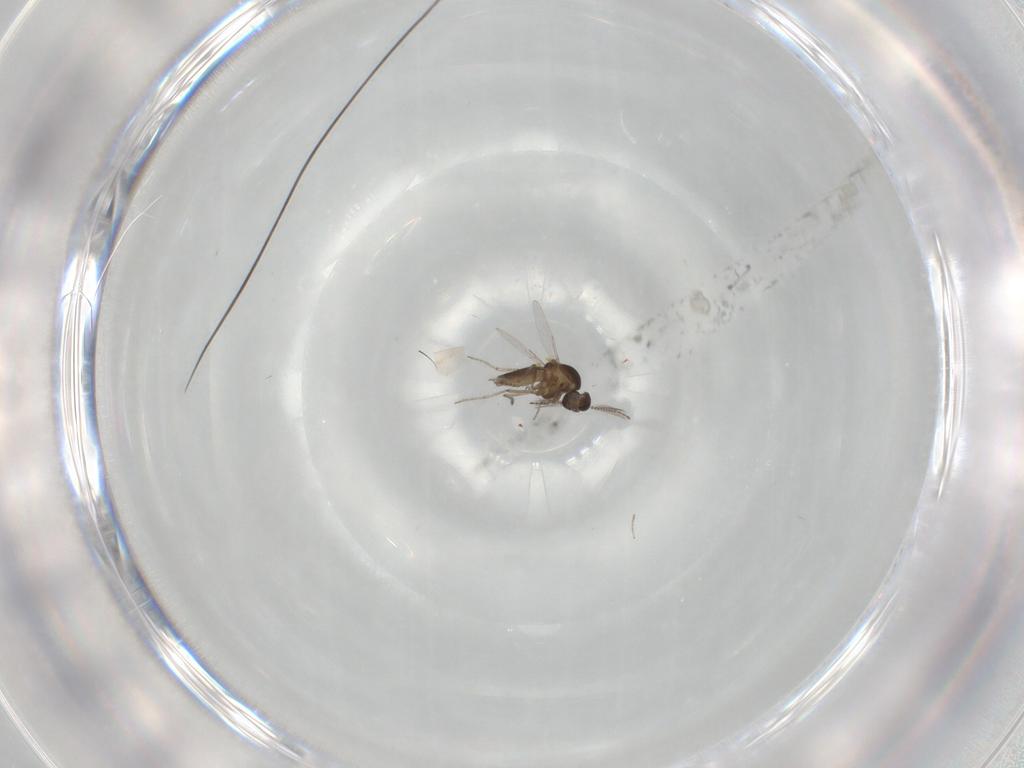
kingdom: Animalia
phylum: Arthropoda
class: Insecta
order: Diptera
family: Ceratopogonidae
